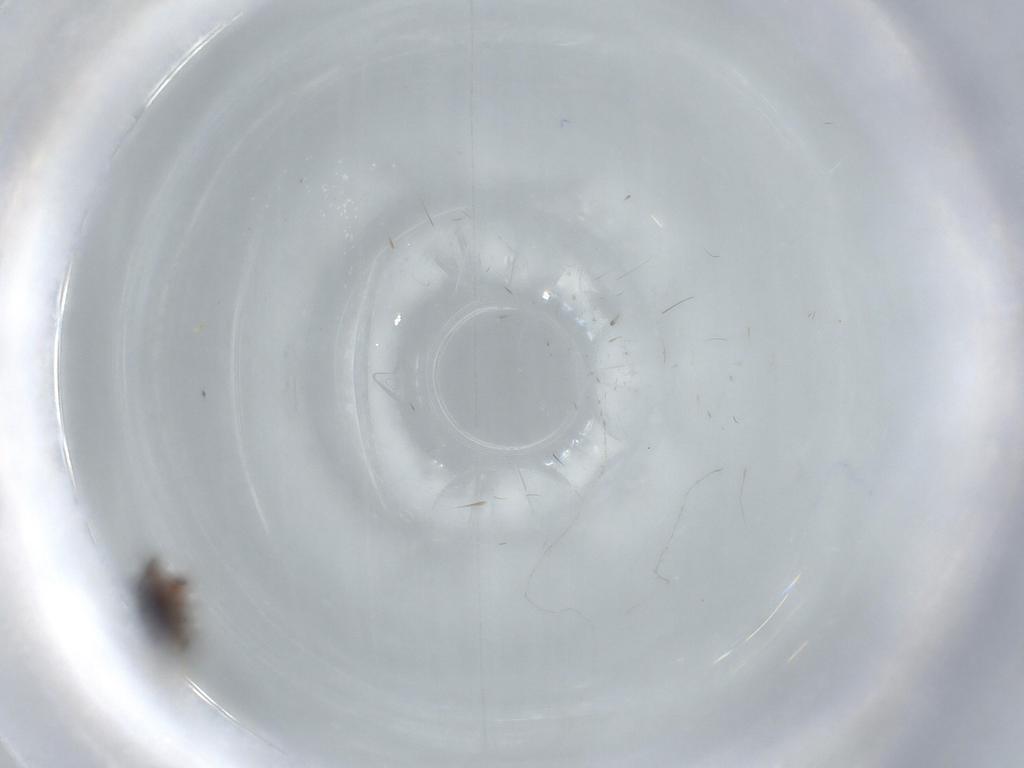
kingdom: Animalia
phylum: Arthropoda
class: Insecta
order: Coleoptera
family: Corylophidae
